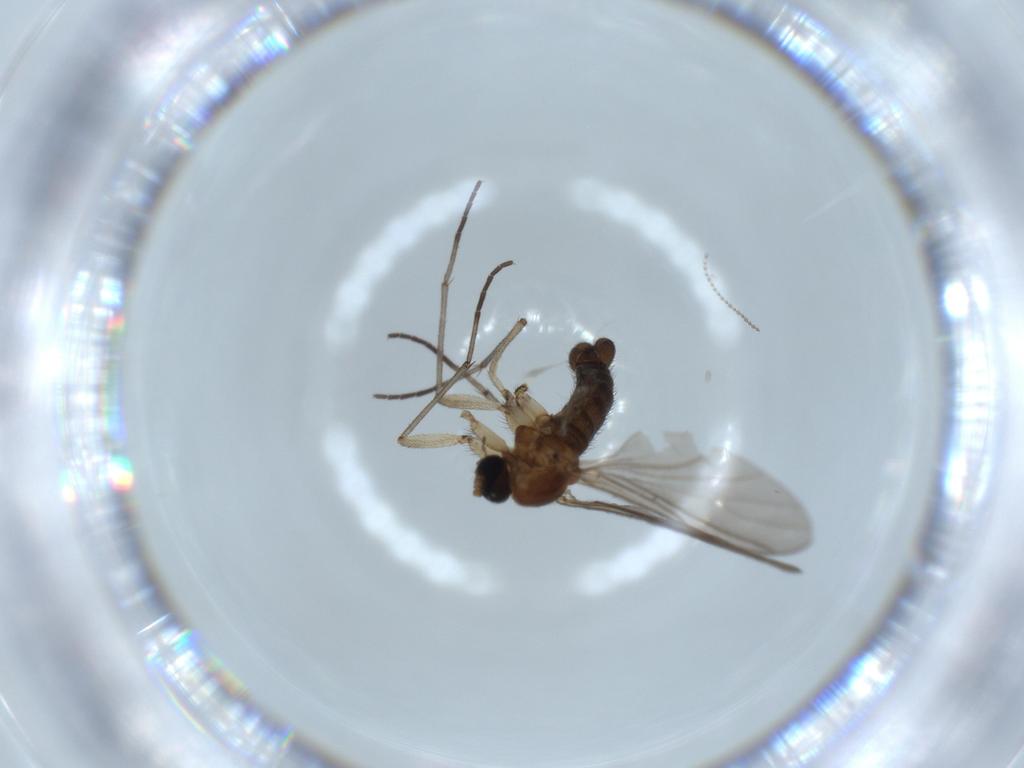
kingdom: Animalia
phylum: Arthropoda
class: Insecta
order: Diptera
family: Sciaridae
